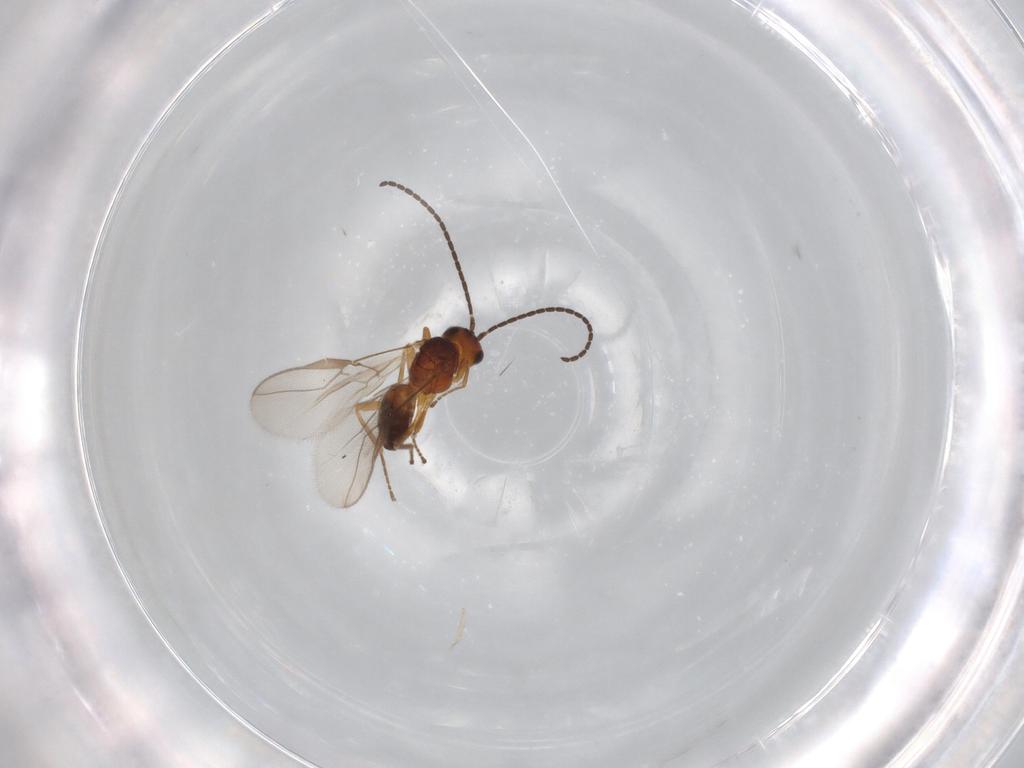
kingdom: Animalia
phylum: Arthropoda
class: Insecta
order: Hymenoptera
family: Braconidae
